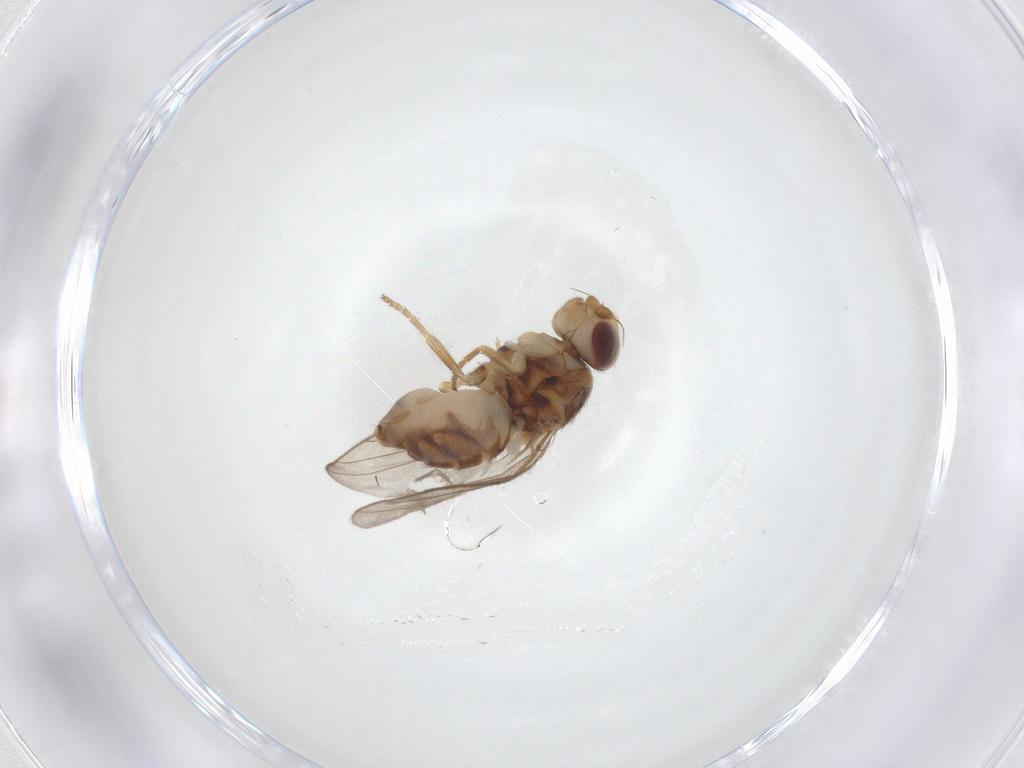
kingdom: Animalia
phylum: Arthropoda
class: Insecta
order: Diptera
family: Chloropidae
